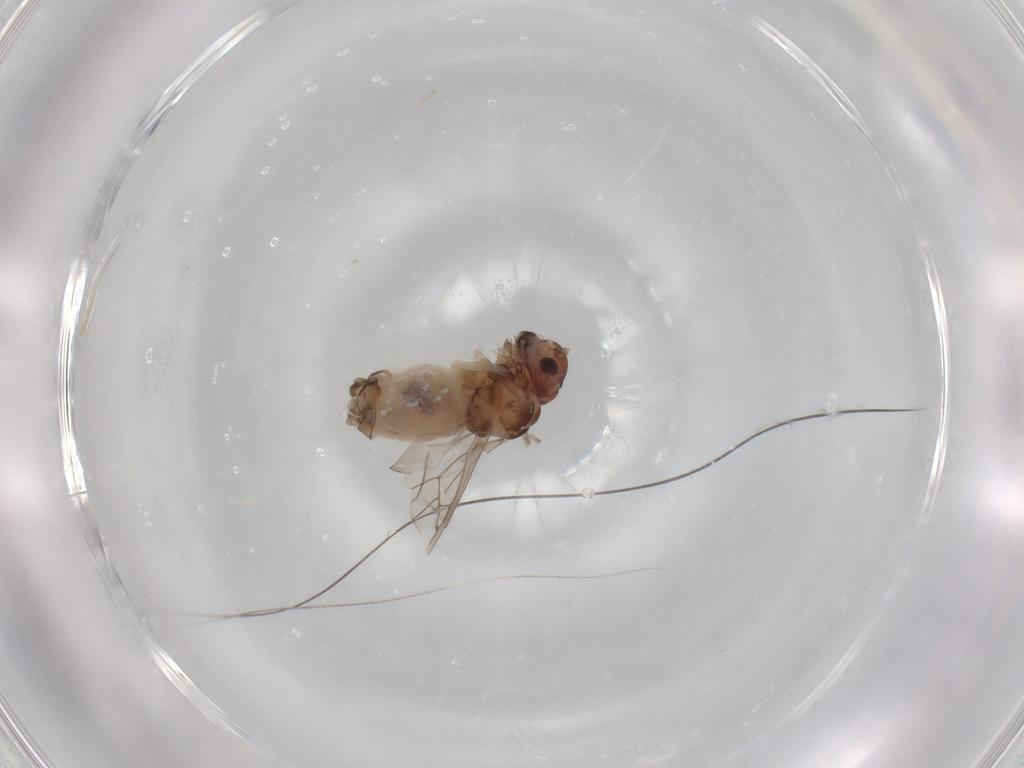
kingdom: Animalia
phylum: Arthropoda
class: Insecta
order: Psocodea
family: Peripsocidae
